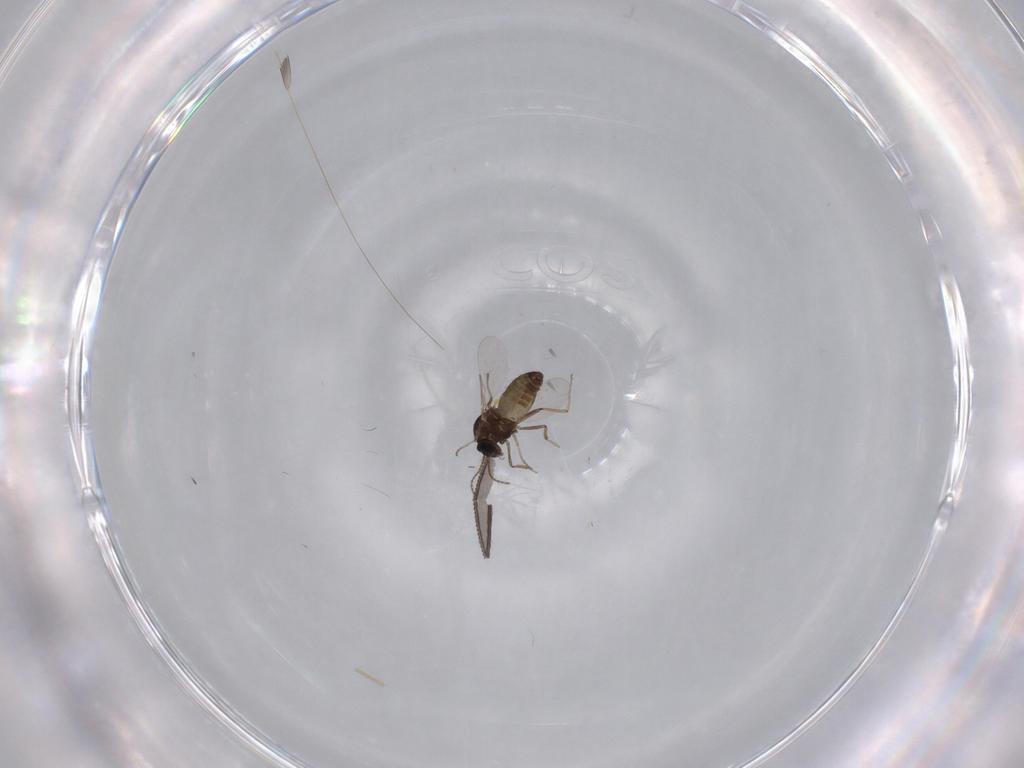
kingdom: Animalia
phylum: Arthropoda
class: Insecta
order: Diptera
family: Ceratopogonidae
